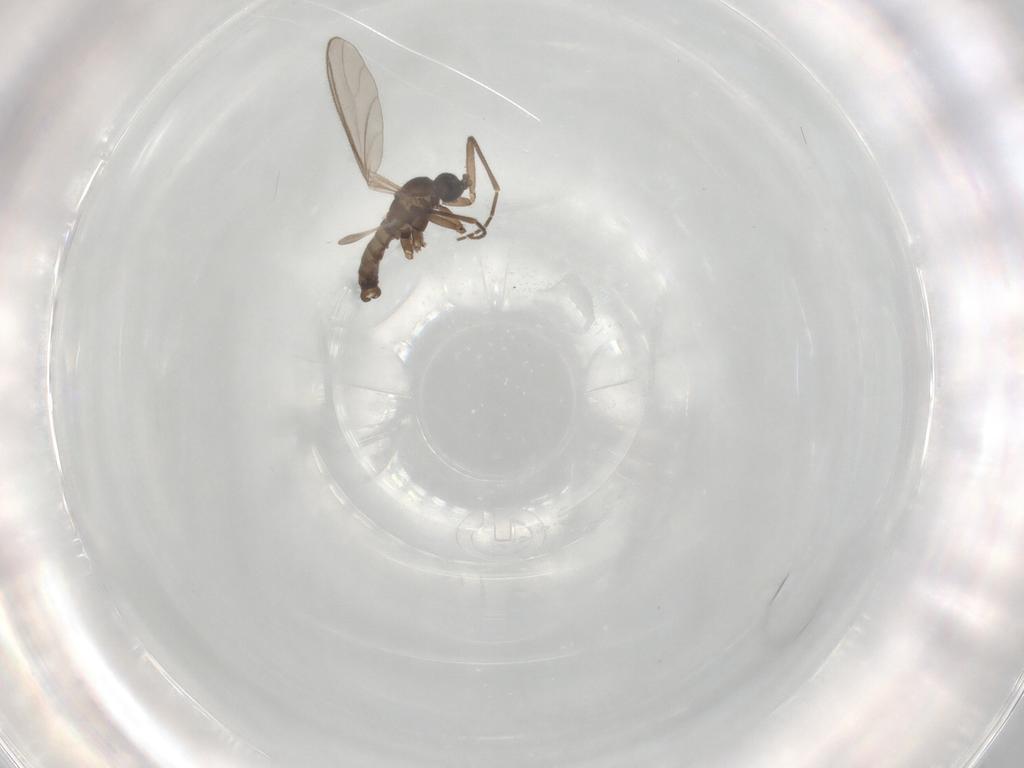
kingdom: Animalia
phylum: Arthropoda
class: Insecta
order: Diptera
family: Sciaridae
